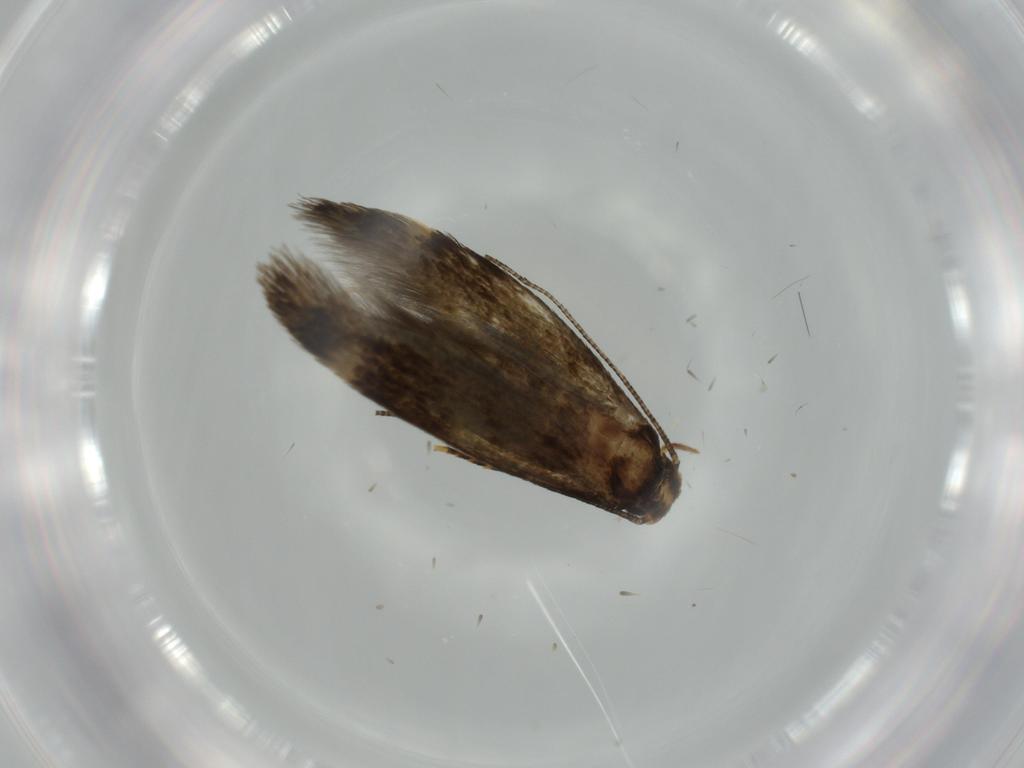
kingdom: Animalia
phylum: Arthropoda
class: Insecta
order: Lepidoptera
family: Tineidae
